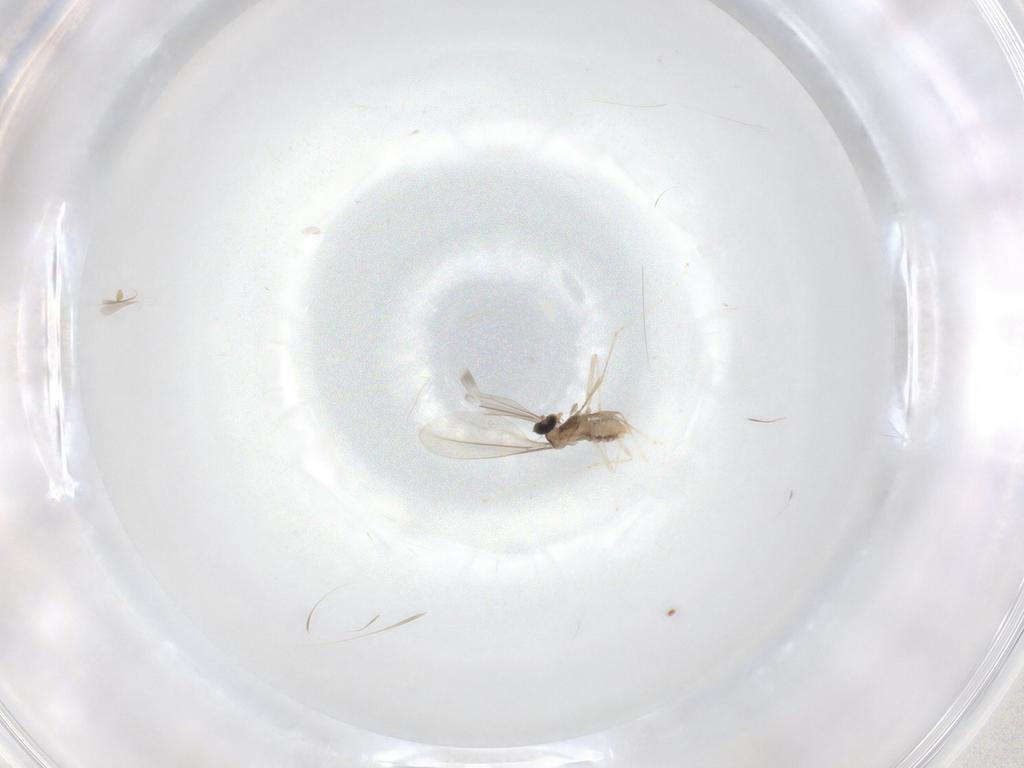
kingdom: Animalia
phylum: Arthropoda
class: Insecta
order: Diptera
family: Cecidomyiidae
